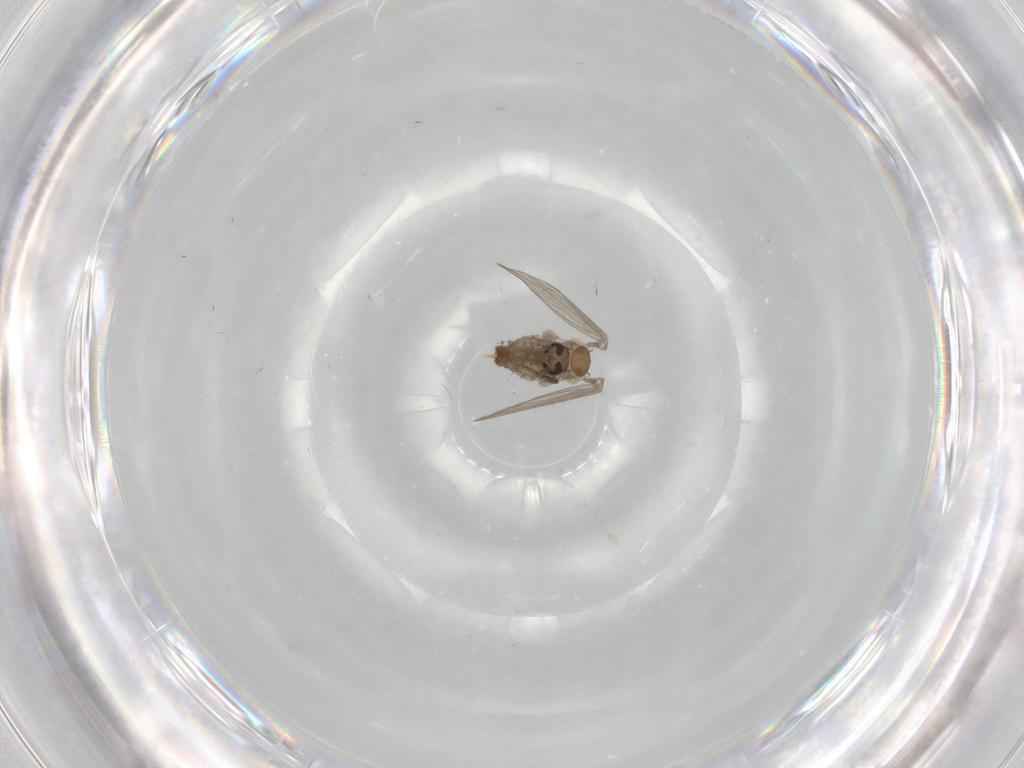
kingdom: Animalia
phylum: Arthropoda
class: Insecta
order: Diptera
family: Psychodidae
